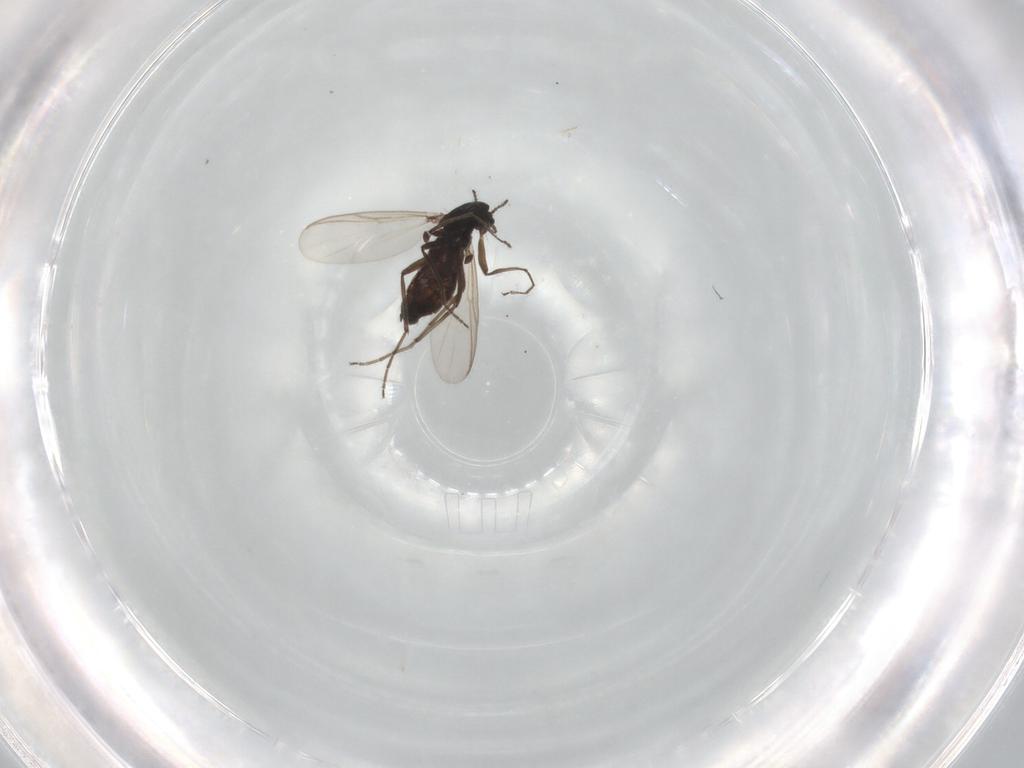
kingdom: Animalia
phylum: Arthropoda
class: Insecta
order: Diptera
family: Chironomidae
